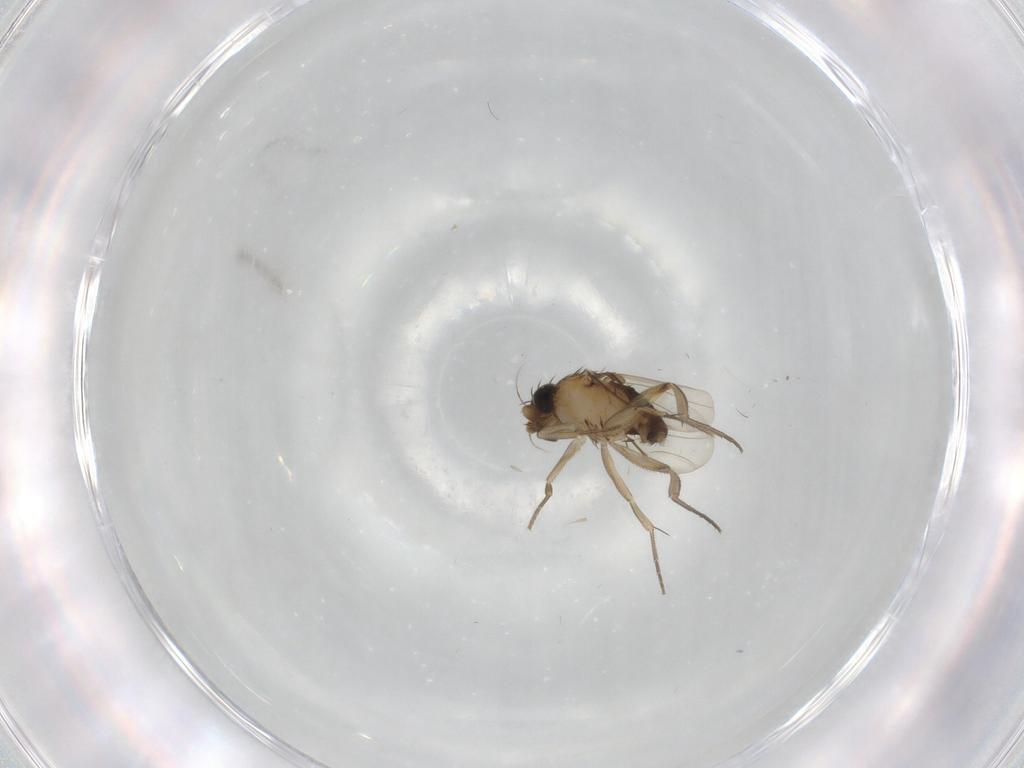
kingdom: Animalia
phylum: Arthropoda
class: Insecta
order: Diptera
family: Phoridae
